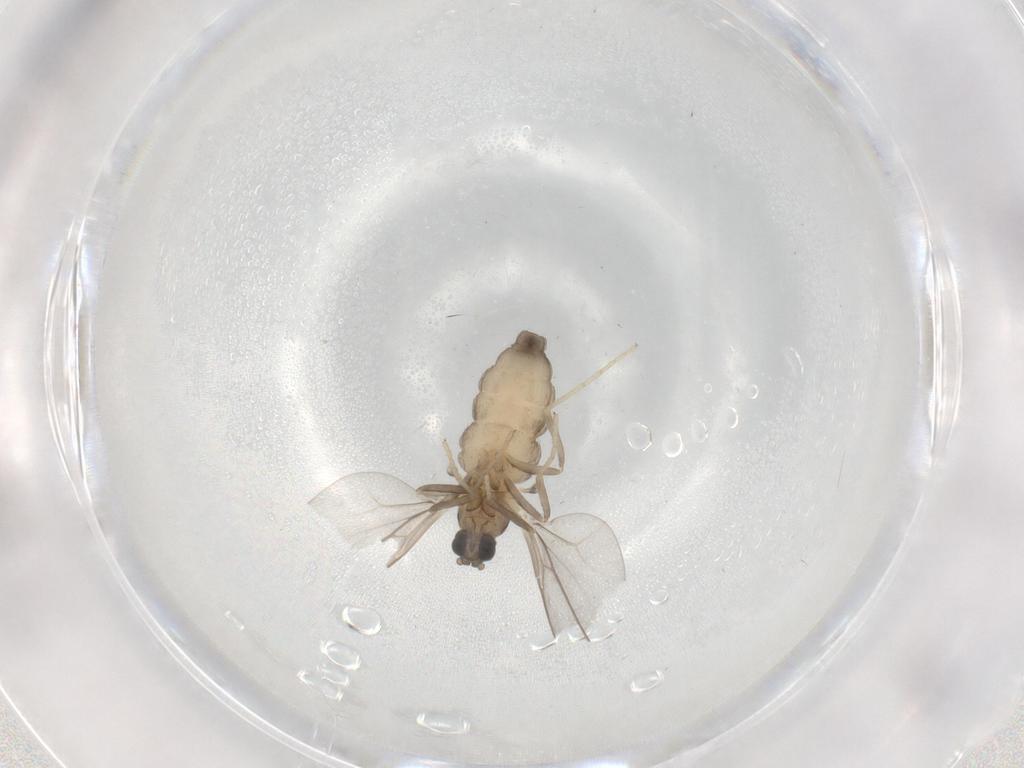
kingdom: Animalia
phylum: Arthropoda
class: Insecta
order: Diptera
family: Cecidomyiidae
